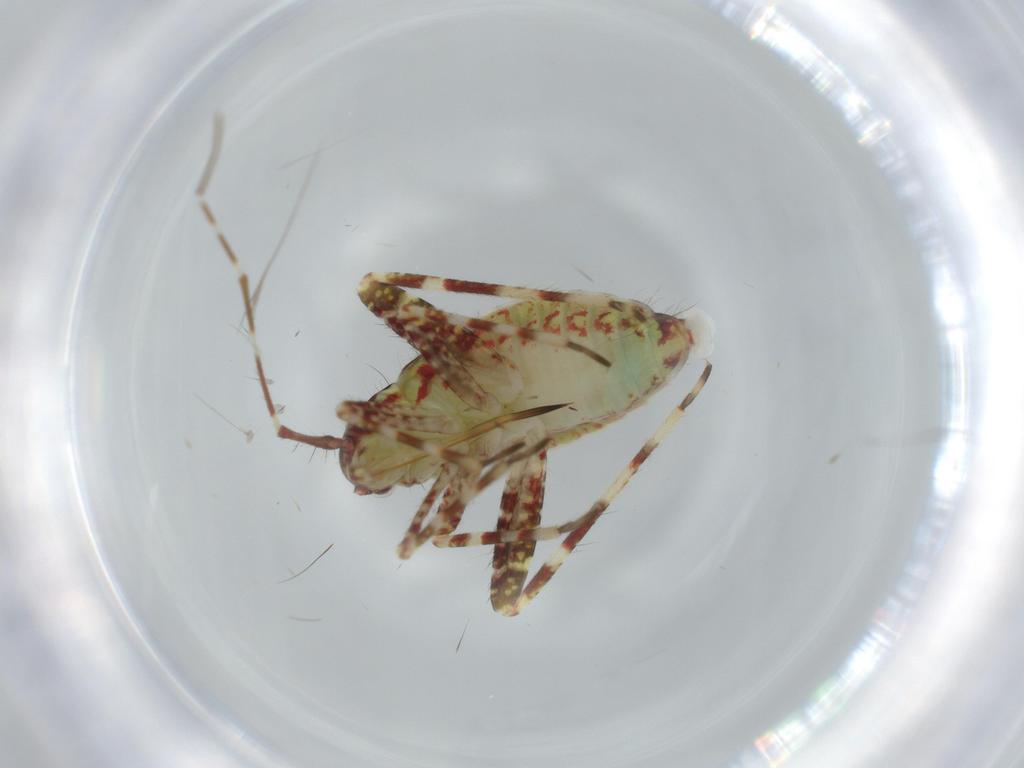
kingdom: Animalia
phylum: Arthropoda
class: Insecta
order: Hemiptera
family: Miridae
